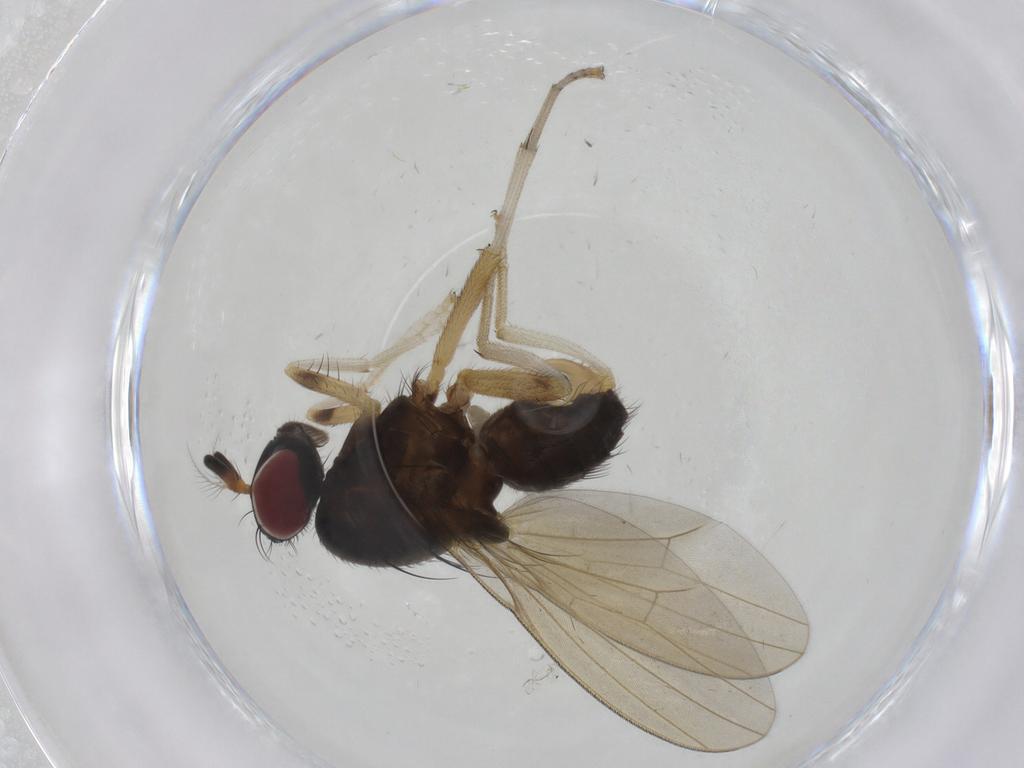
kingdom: Animalia
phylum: Arthropoda
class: Insecta
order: Diptera
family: Lauxaniidae
